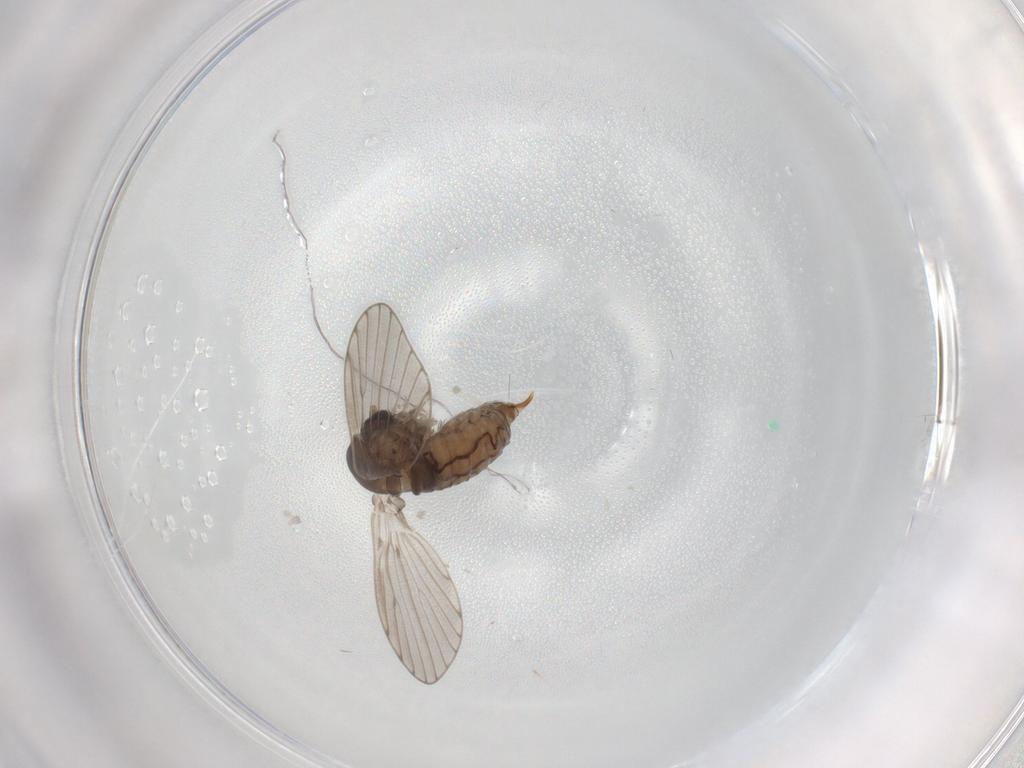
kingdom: Animalia
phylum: Arthropoda
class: Insecta
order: Diptera
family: Psychodidae
